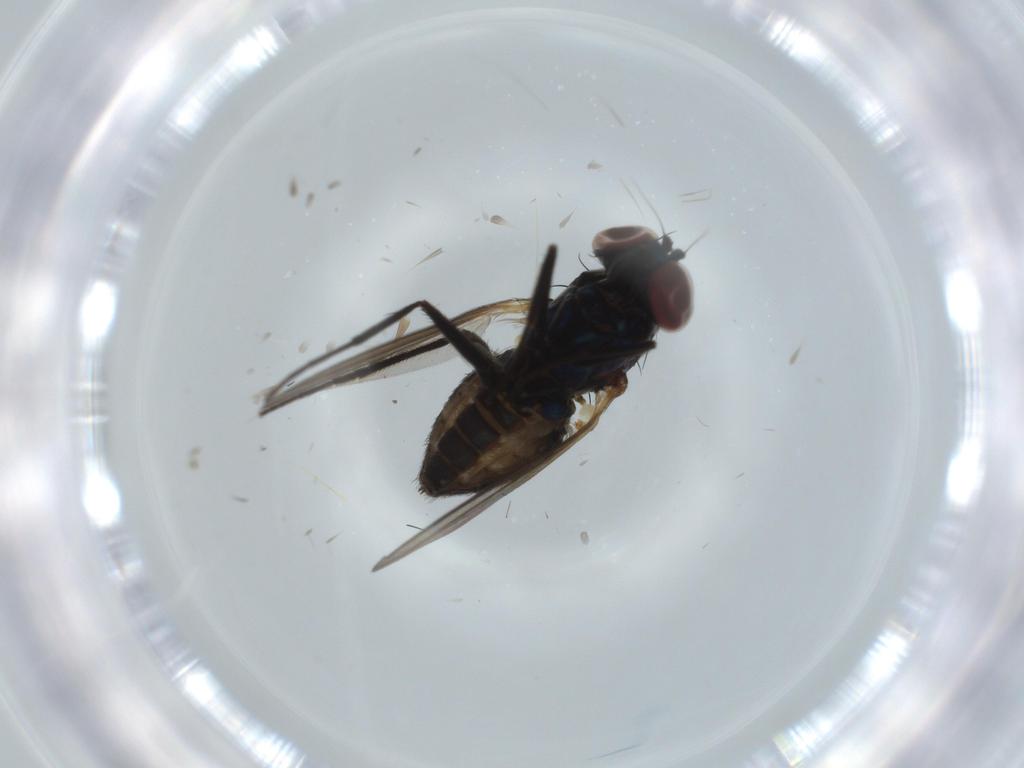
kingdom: Animalia
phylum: Arthropoda
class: Insecta
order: Diptera
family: Dolichopodidae
